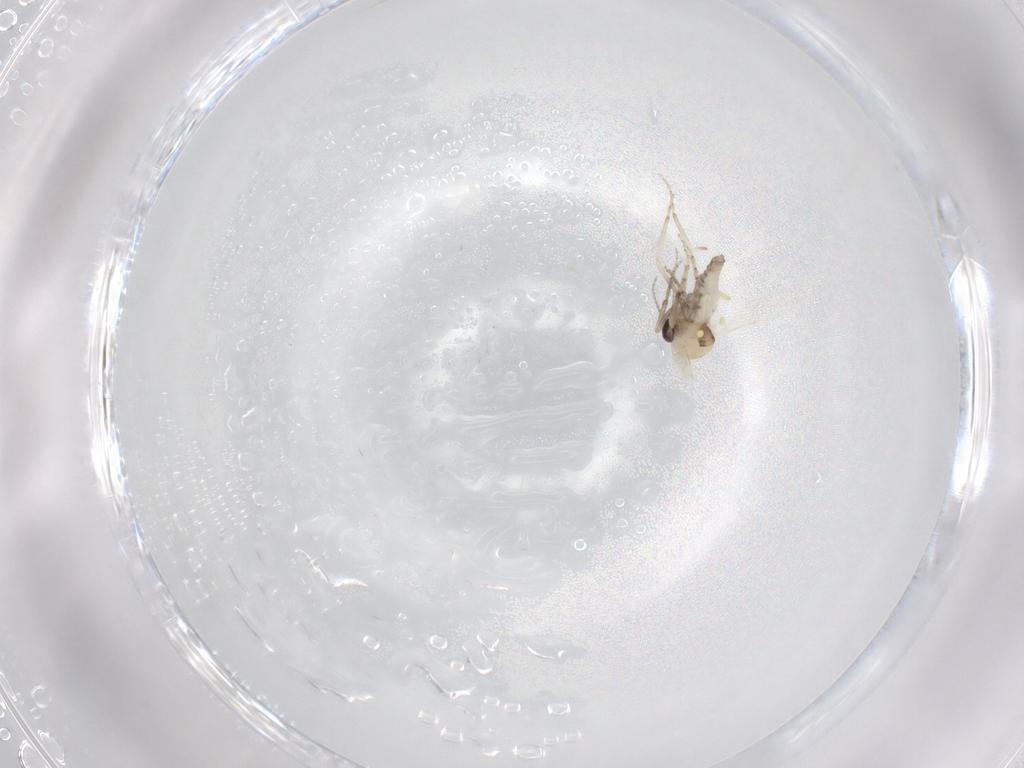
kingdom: Animalia
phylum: Arthropoda
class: Insecta
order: Diptera
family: Ceratopogonidae
